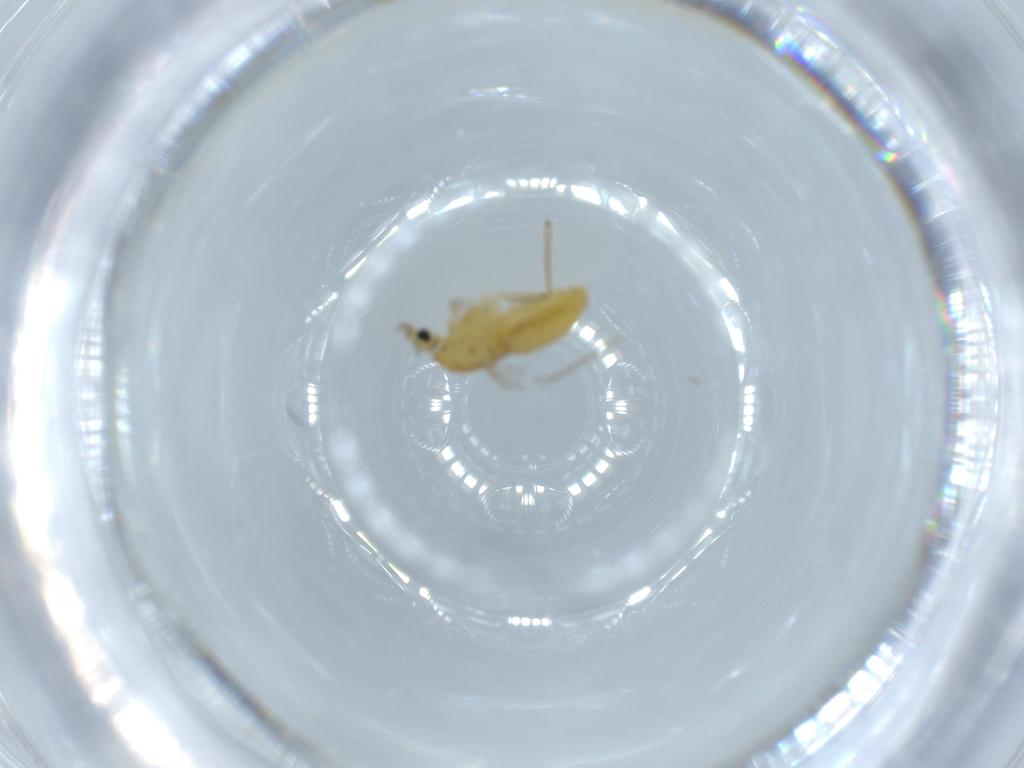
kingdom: Animalia
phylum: Arthropoda
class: Insecta
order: Diptera
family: Chironomidae
